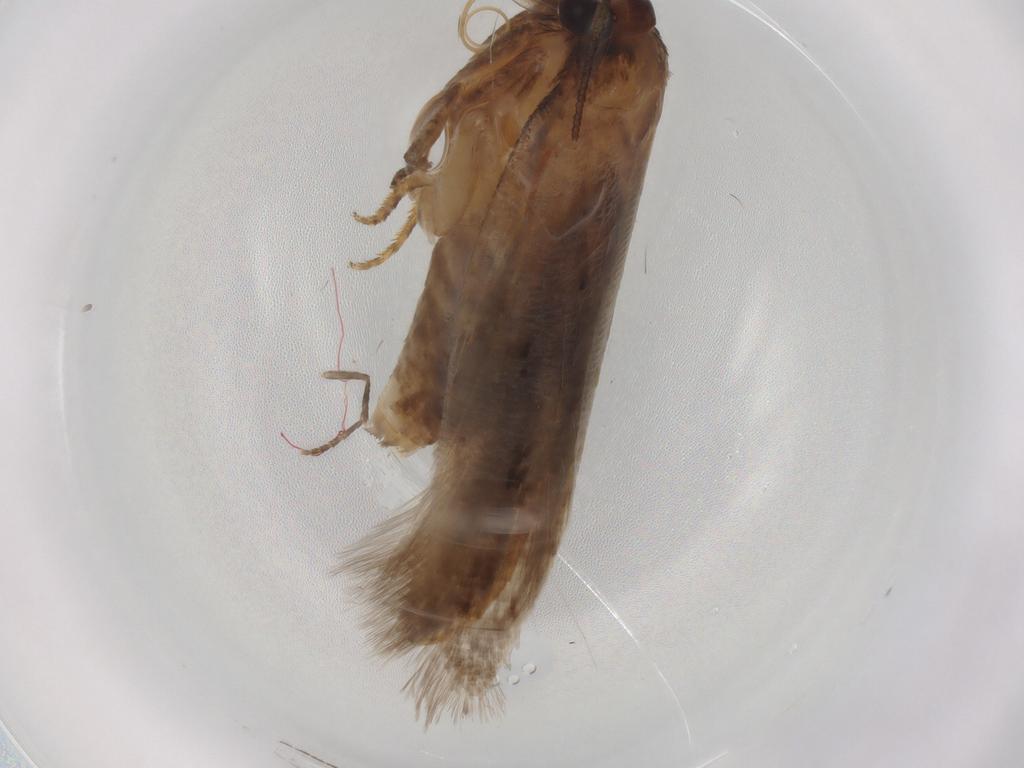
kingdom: Animalia
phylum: Arthropoda
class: Insecta
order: Lepidoptera
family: Gelechiidae
